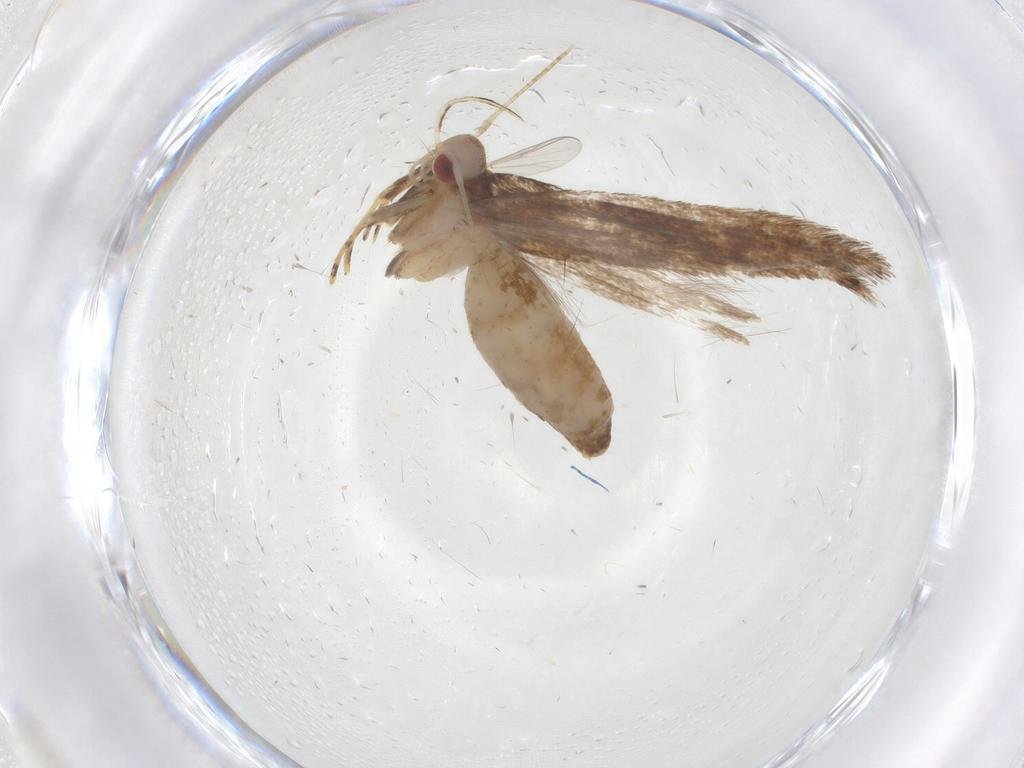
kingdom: Animalia
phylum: Arthropoda
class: Insecta
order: Lepidoptera
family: Cosmopterigidae
